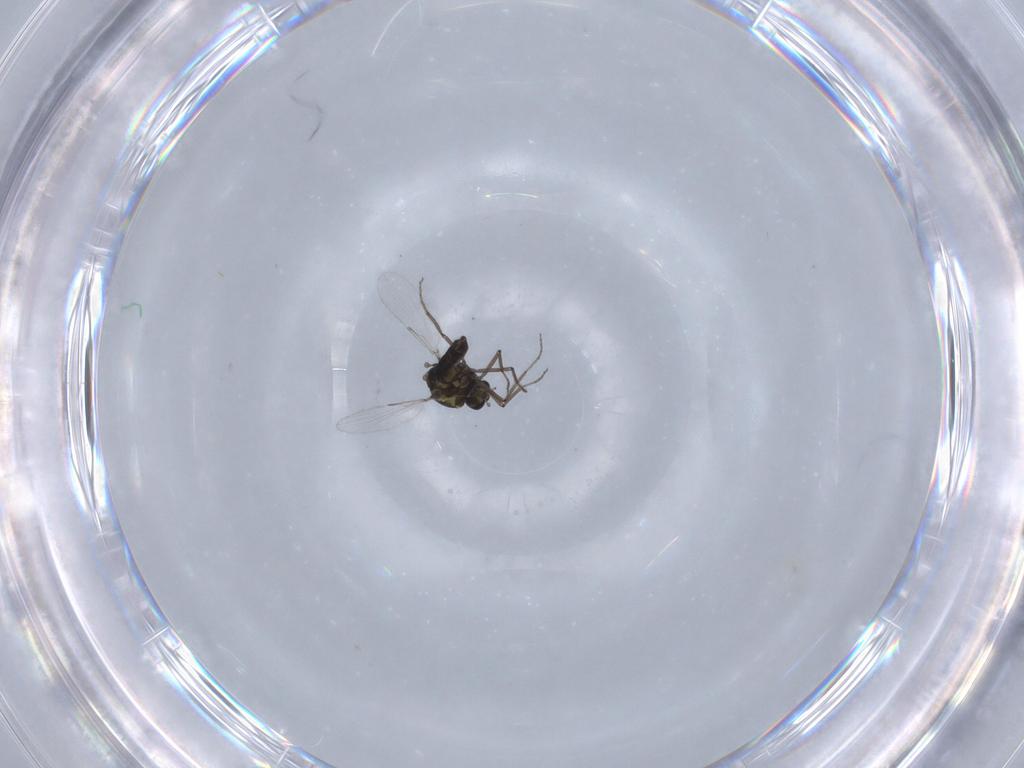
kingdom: Animalia
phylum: Arthropoda
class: Insecta
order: Diptera
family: Ceratopogonidae
